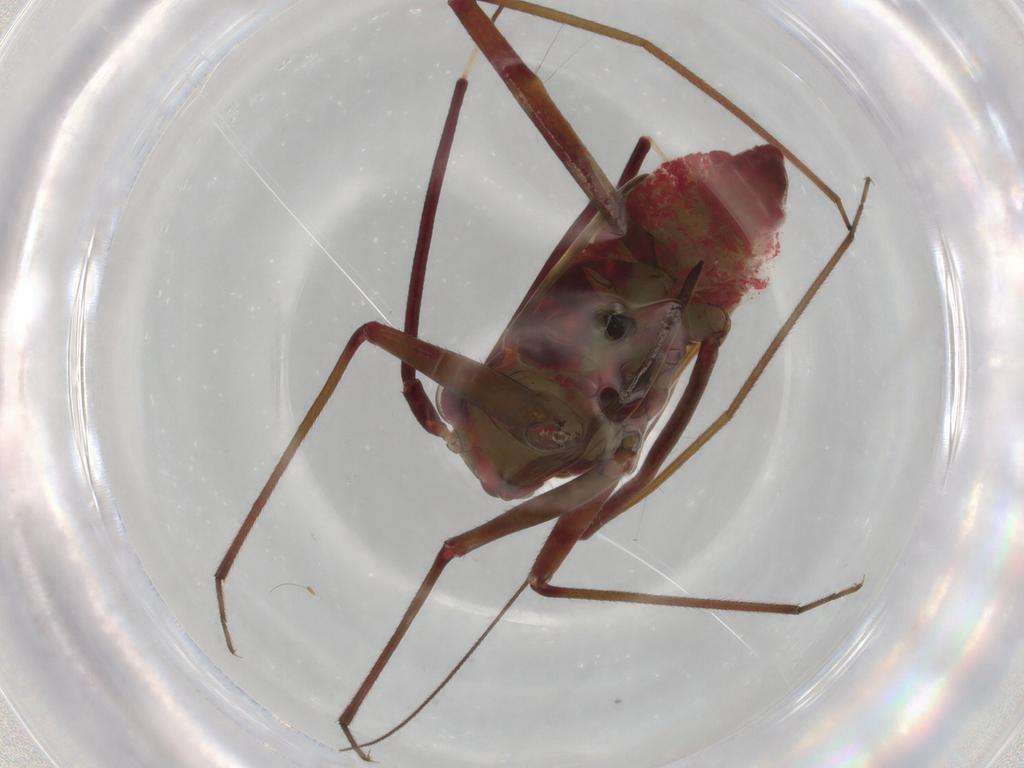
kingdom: Animalia
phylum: Arthropoda
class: Insecta
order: Hemiptera
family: Miridae
